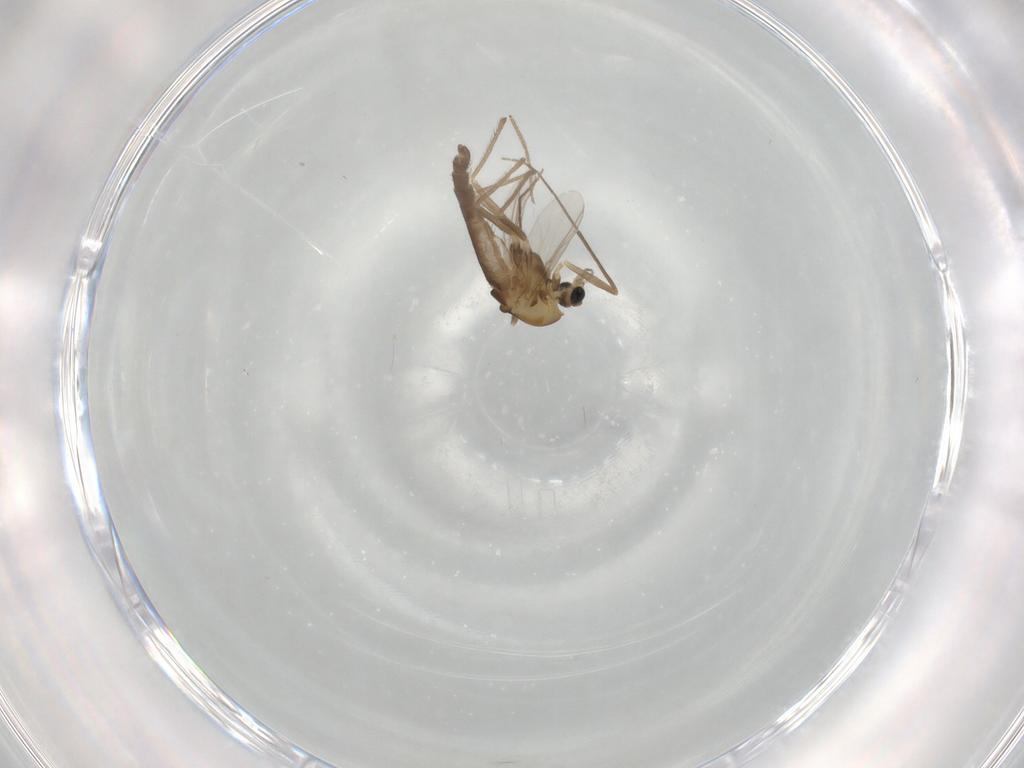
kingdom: Animalia
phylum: Arthropoda
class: Insecta
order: Diptera
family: Chironomidae
